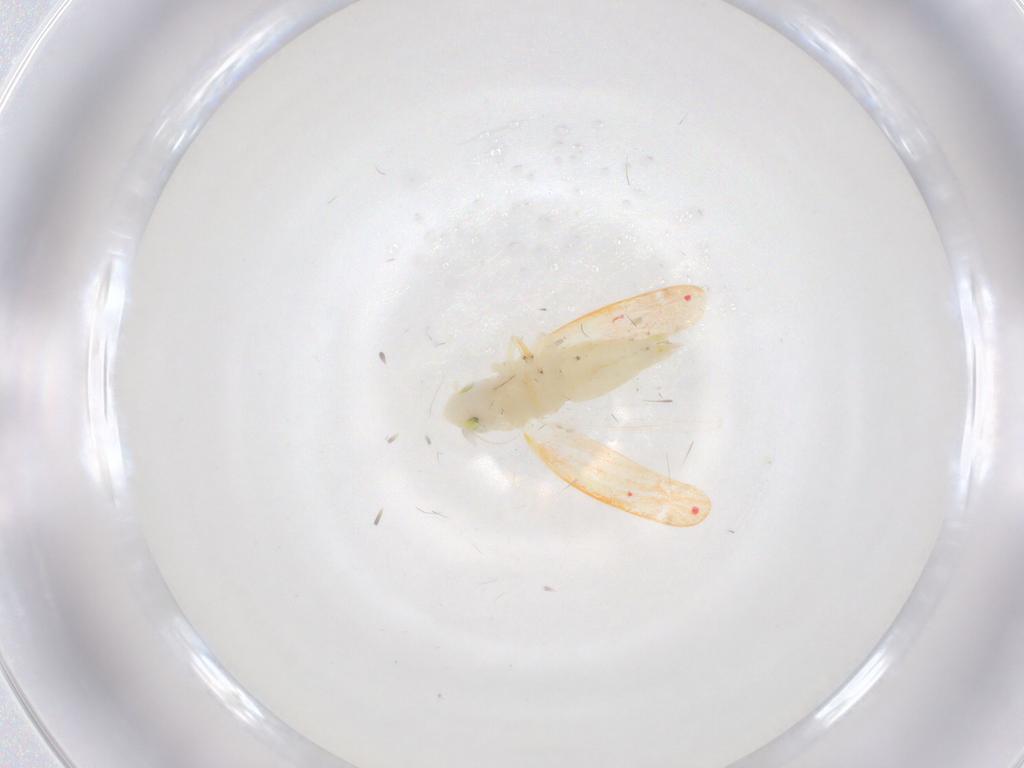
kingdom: Animalia
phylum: Arthropoda
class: Insecta
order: Hemiptera
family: Cicadellidae
